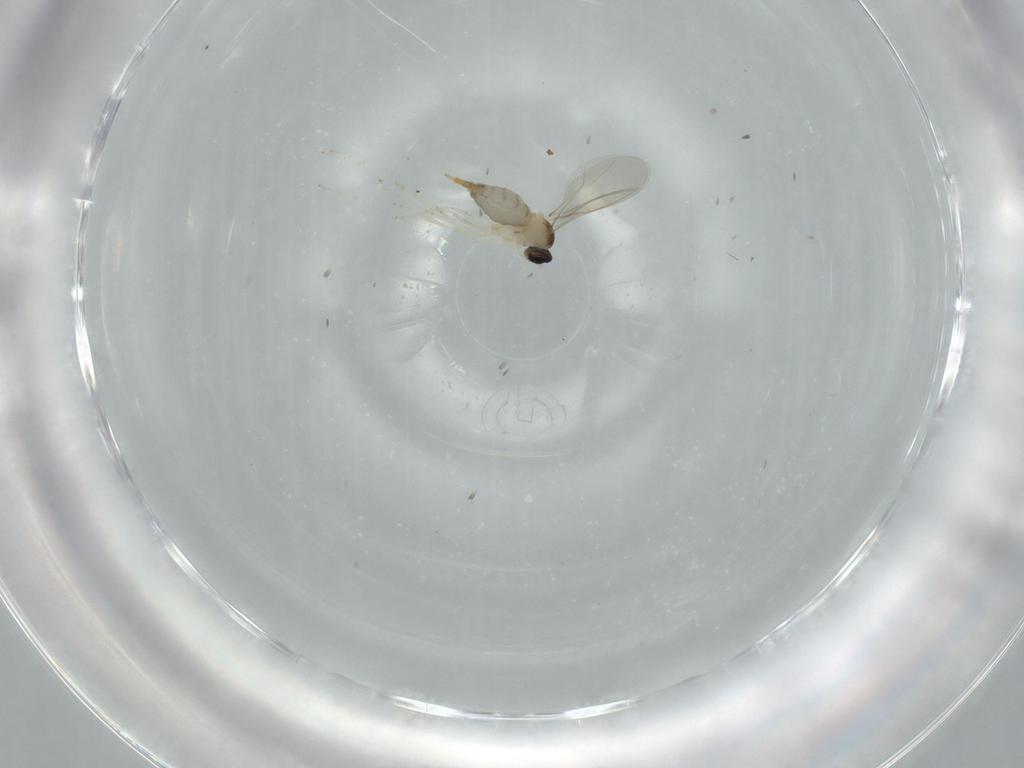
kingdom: Animalia
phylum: Arthropoda
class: Insecta
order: Diptera
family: Cecidomyiidae
